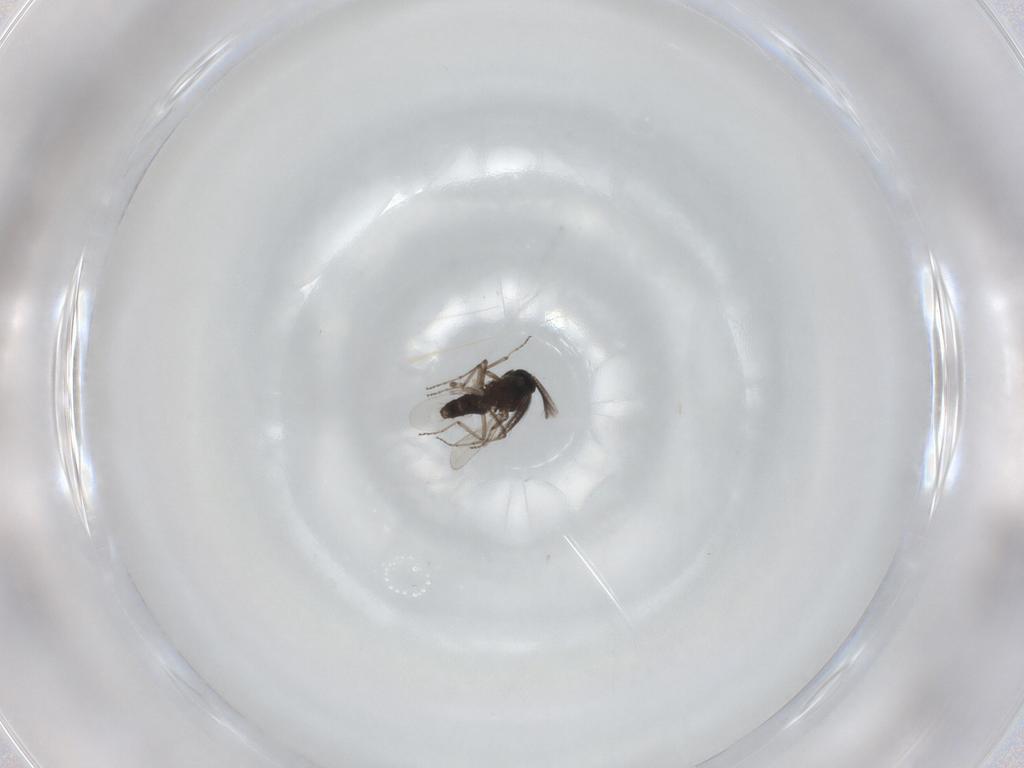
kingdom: Animalia
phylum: Arthropoda
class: Insecta
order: Diptera
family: Ceratopogonidae
